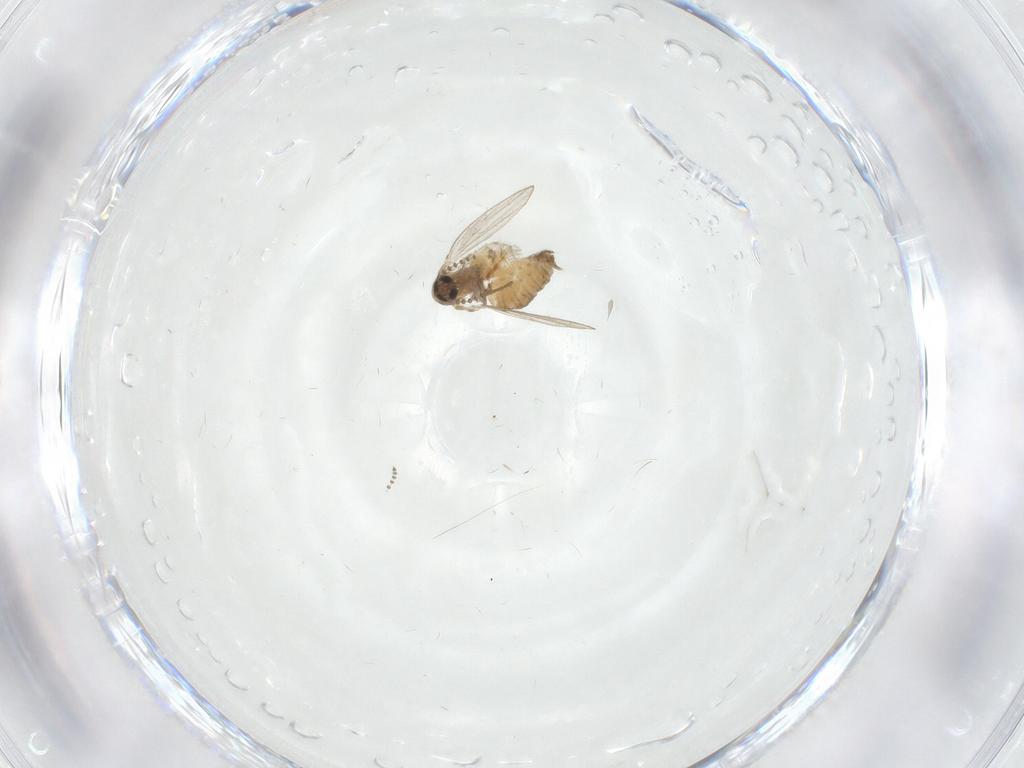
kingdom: Animalia
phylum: Arthropoda
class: Insecta
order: Diptera
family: Psychodidae
